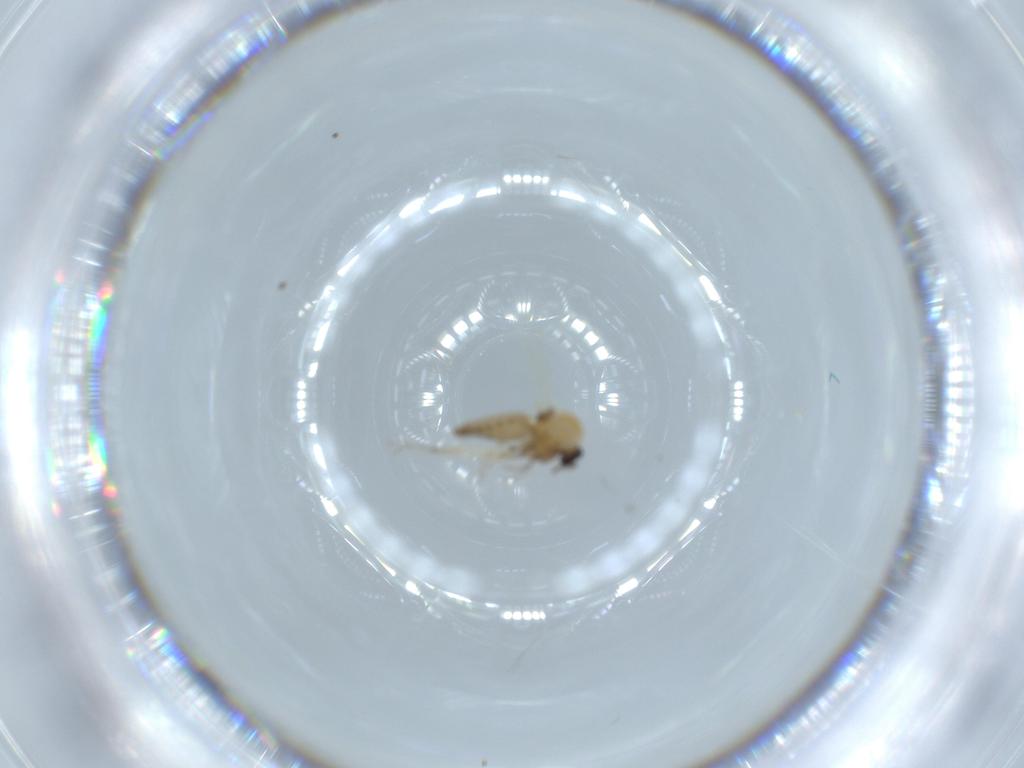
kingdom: Animalia
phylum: Arthropoda
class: Insecta
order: Diptera
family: Ceratopogonidae
